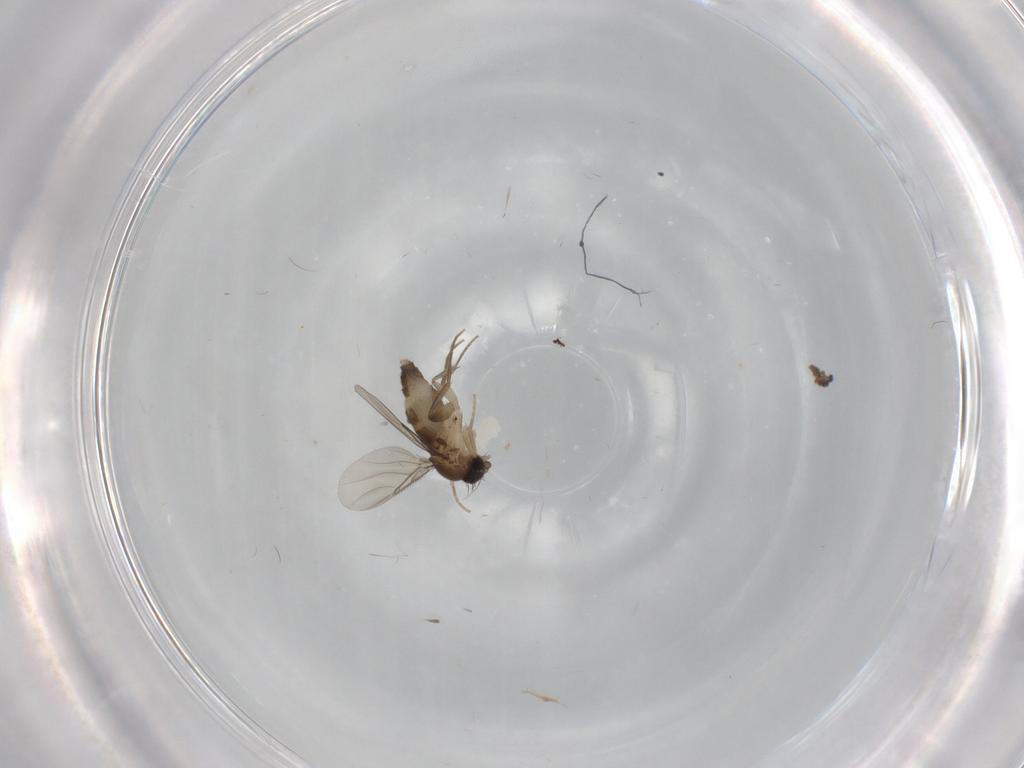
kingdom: Animalia
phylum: Arthropoda
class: Insecta
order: Diptera
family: Phoridae
